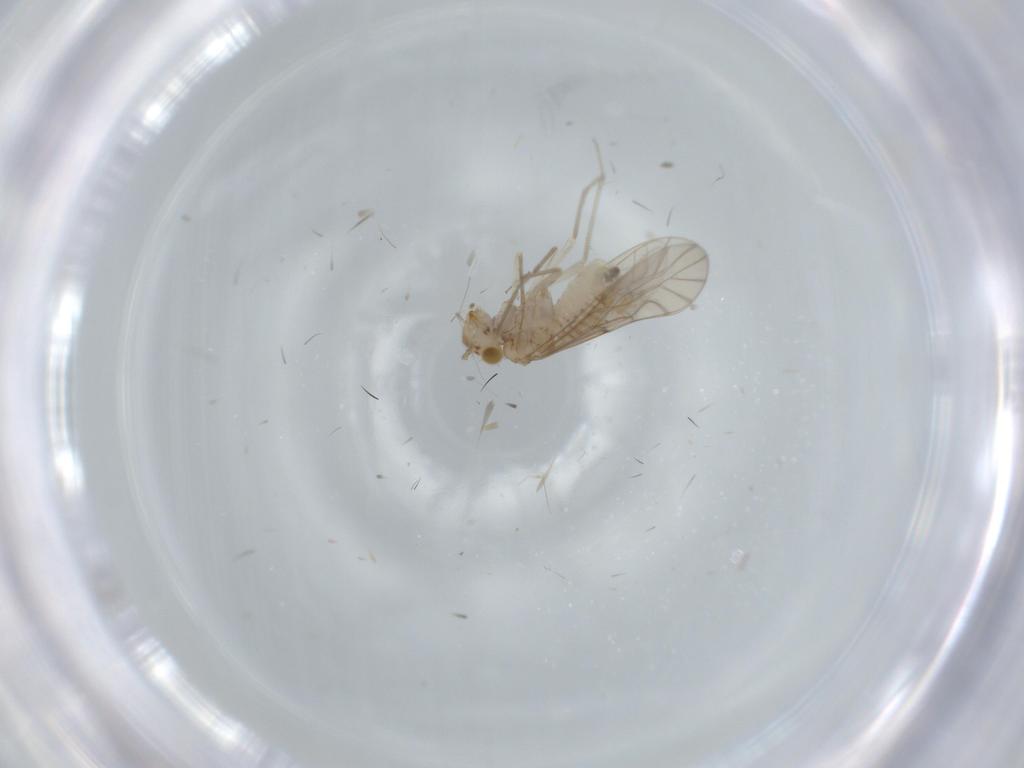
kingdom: Animalia
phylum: Arthropoda
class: Insecta
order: Psocodea
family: Lachesillidae
